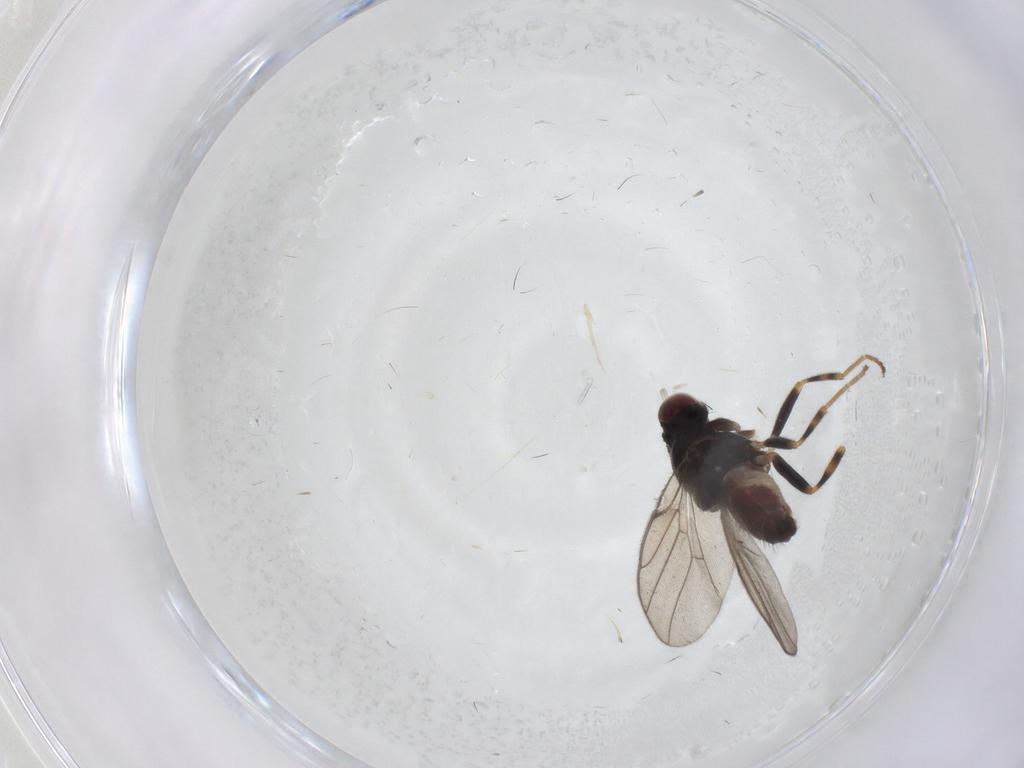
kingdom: Animalia
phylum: Arthropoda
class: Insecta
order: Diptera
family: Chloropidae
